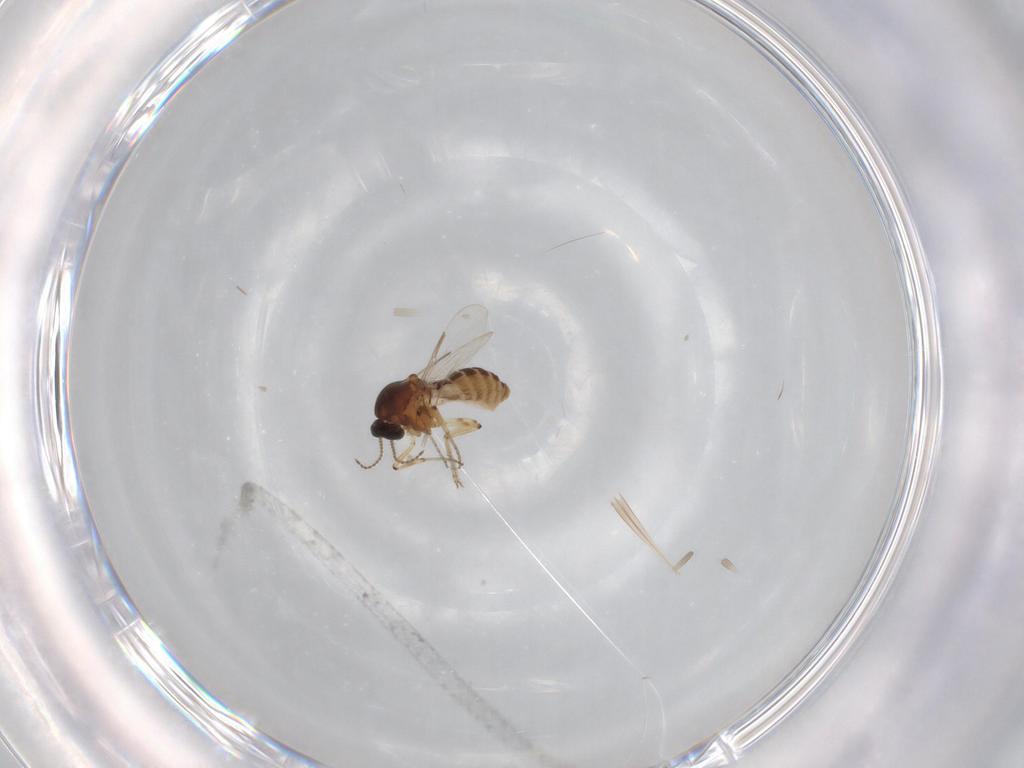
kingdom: Animalia
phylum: Arthropoda
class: Insecta
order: Diptera
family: Ceratopogonidae
